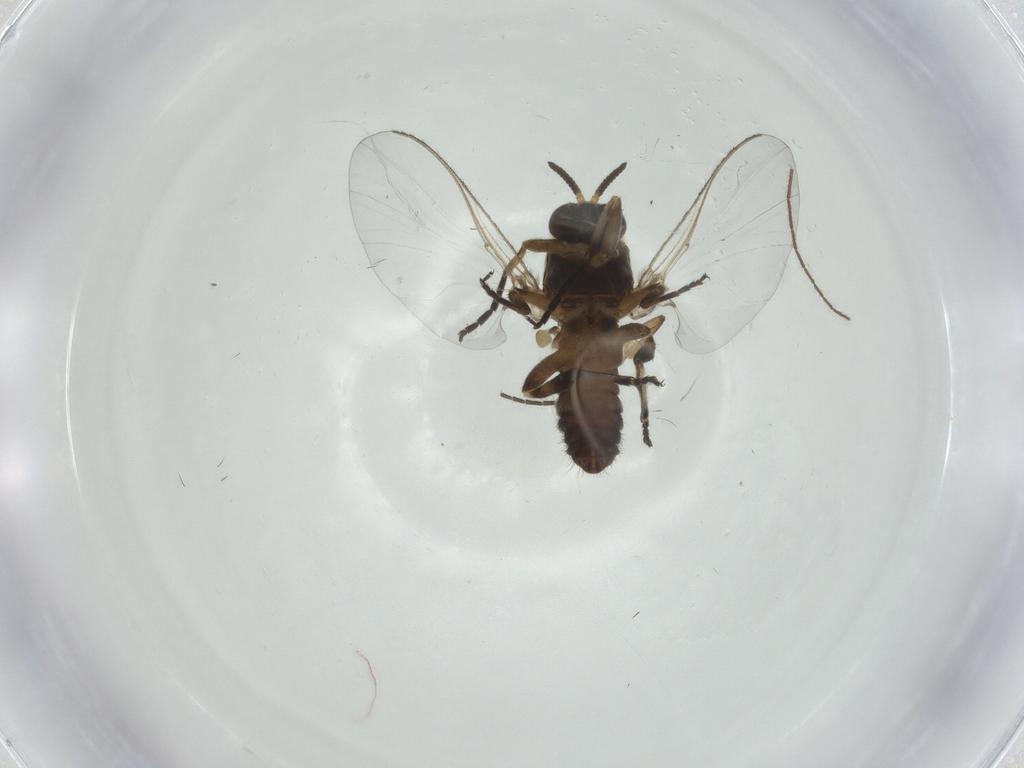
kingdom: Animalia
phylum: Arthropoda
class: Insecta
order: Diptera
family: Simuliidae
